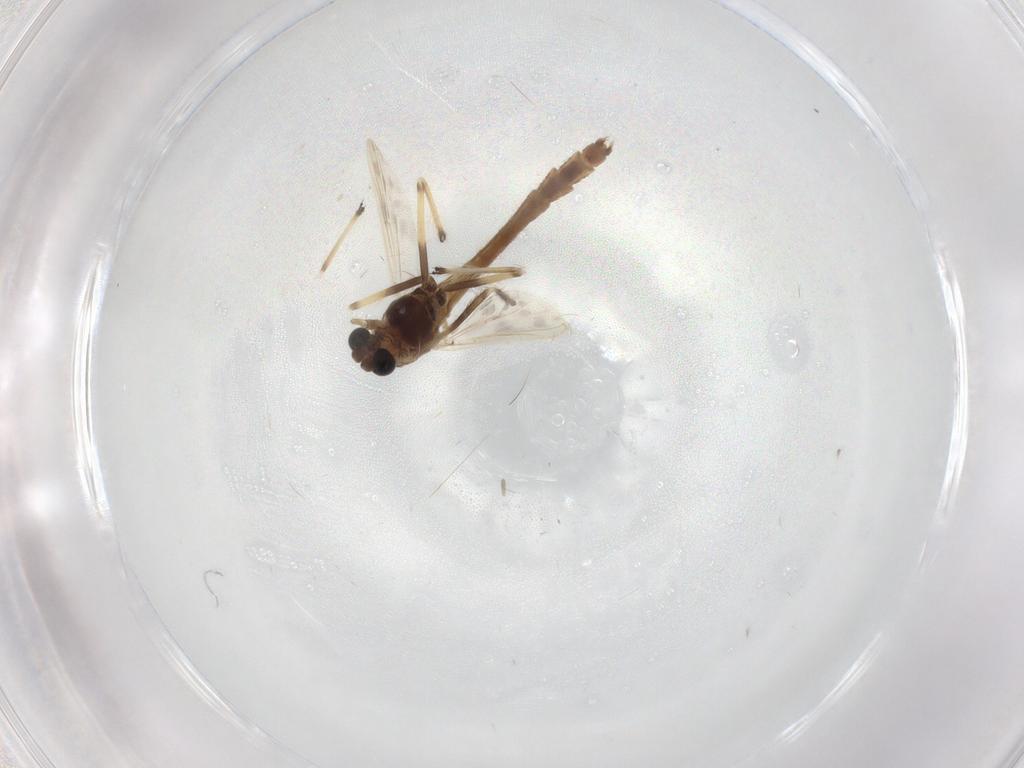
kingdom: Animalia
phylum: Arthropoda
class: Insecta
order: Diptera
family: Chironomidae
